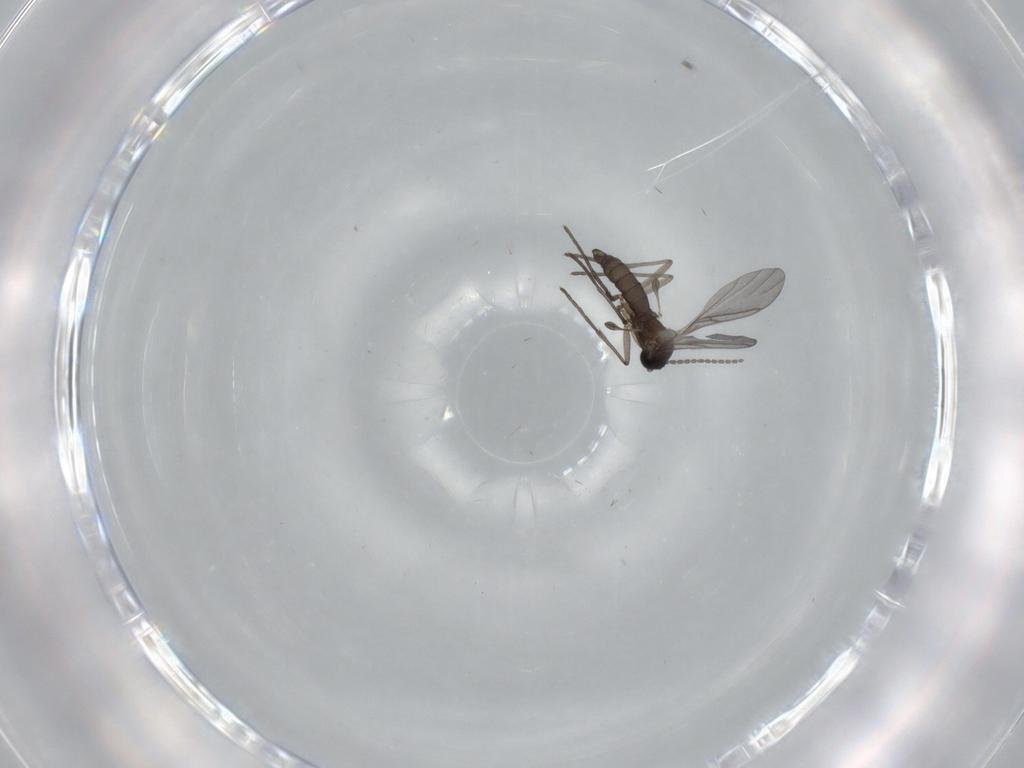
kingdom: Animalia
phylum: Arthropoda
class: Insecta
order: Diptera
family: Sciaridae
